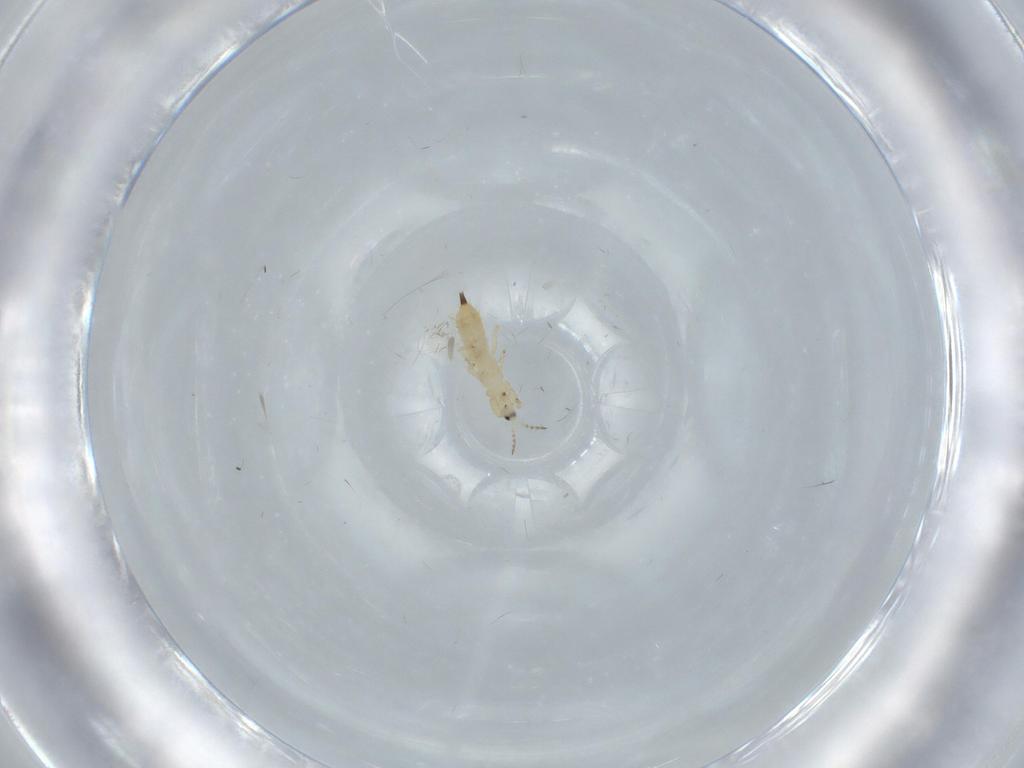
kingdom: Animalia
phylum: Arthropoda
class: Insecta
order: Thysanoptera
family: Phlaeothripidae
